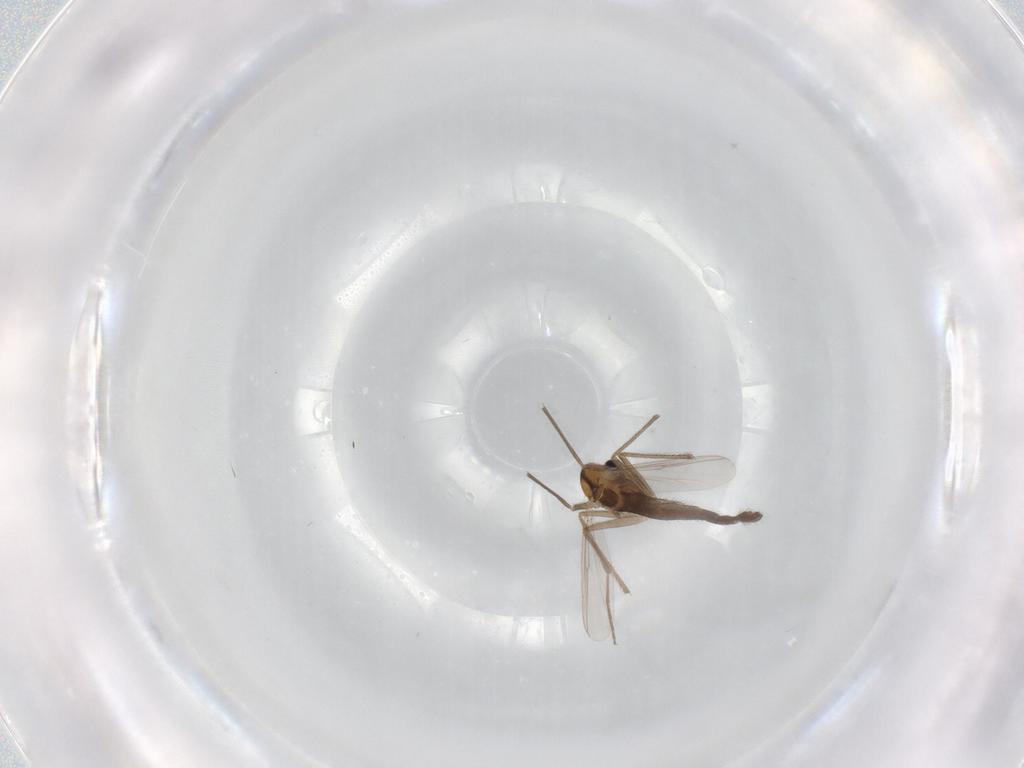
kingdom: Animalia
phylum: Arthropoda
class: Insecta
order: Diptera
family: Chironomidae
